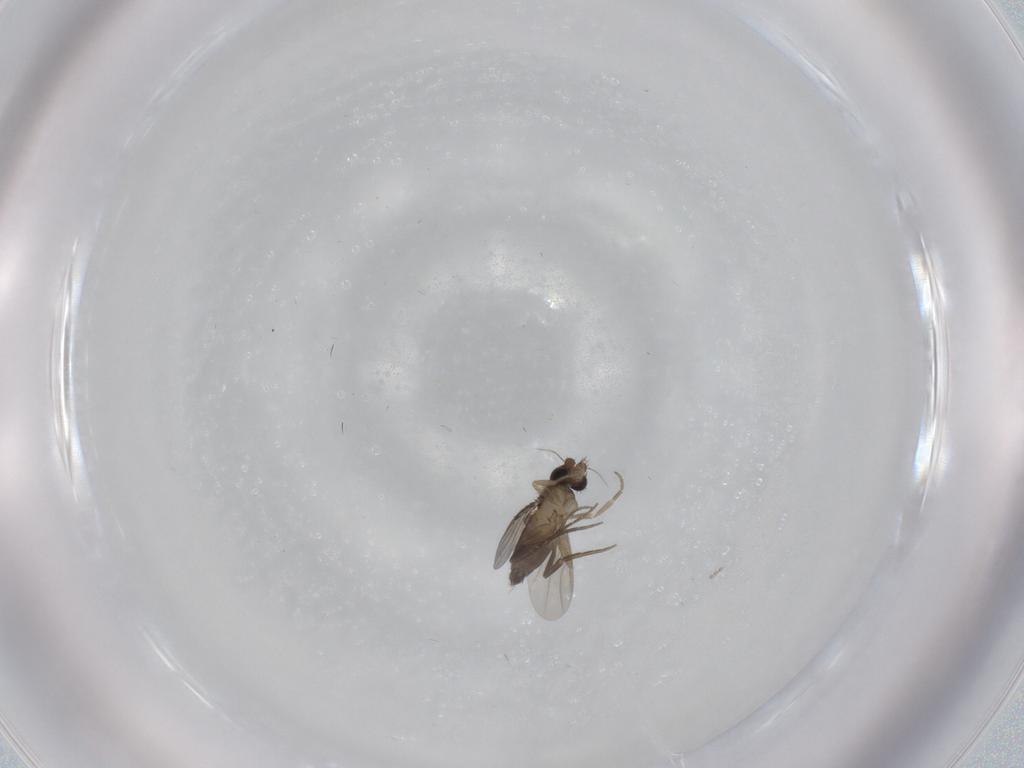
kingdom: Animalia
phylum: Arthropoda
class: Insecta
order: Diptera
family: Phoridae
